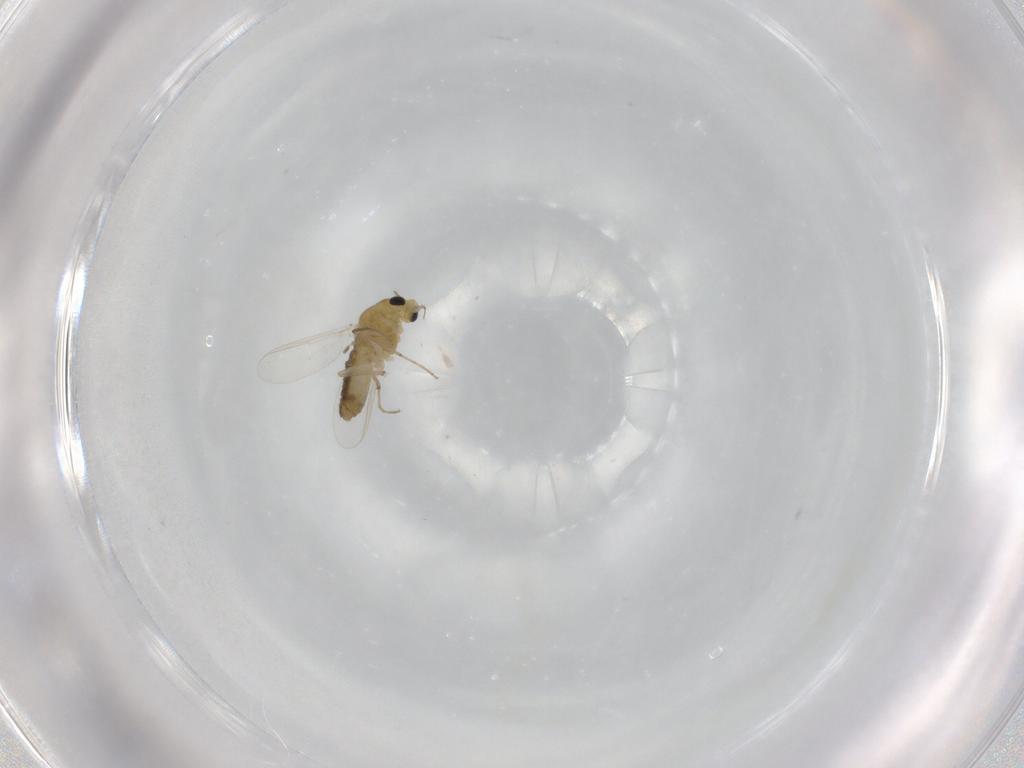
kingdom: Animalia
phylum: Arthropoda
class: Insecta
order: Diptera
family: Chironomidae
